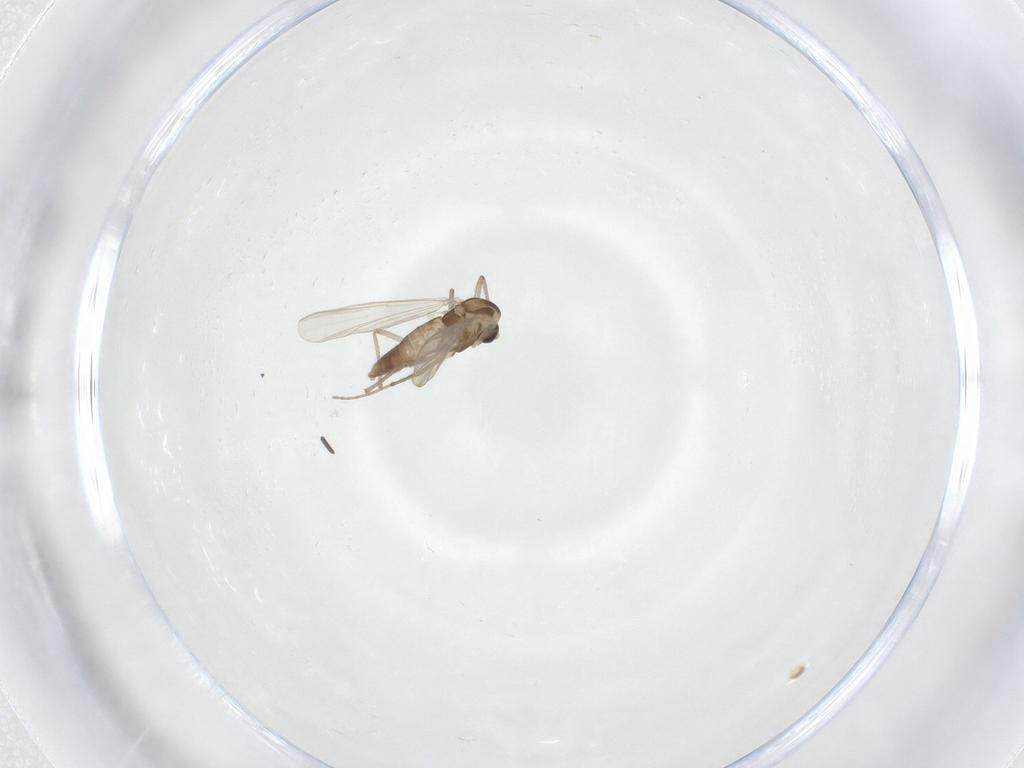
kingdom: Animalia
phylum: Arthropoda
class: Insecta
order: Diptera
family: Chironomidae
